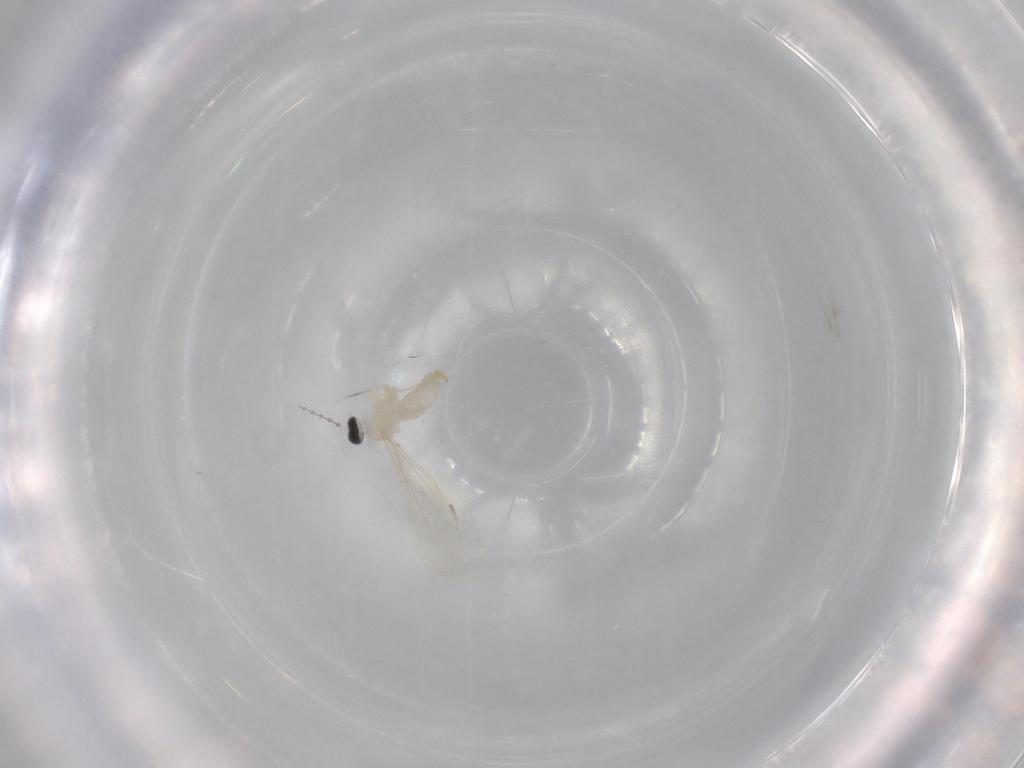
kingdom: Animalia
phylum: Arthropoda
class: Insecta
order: Diptera
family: Cecidomyiidae
